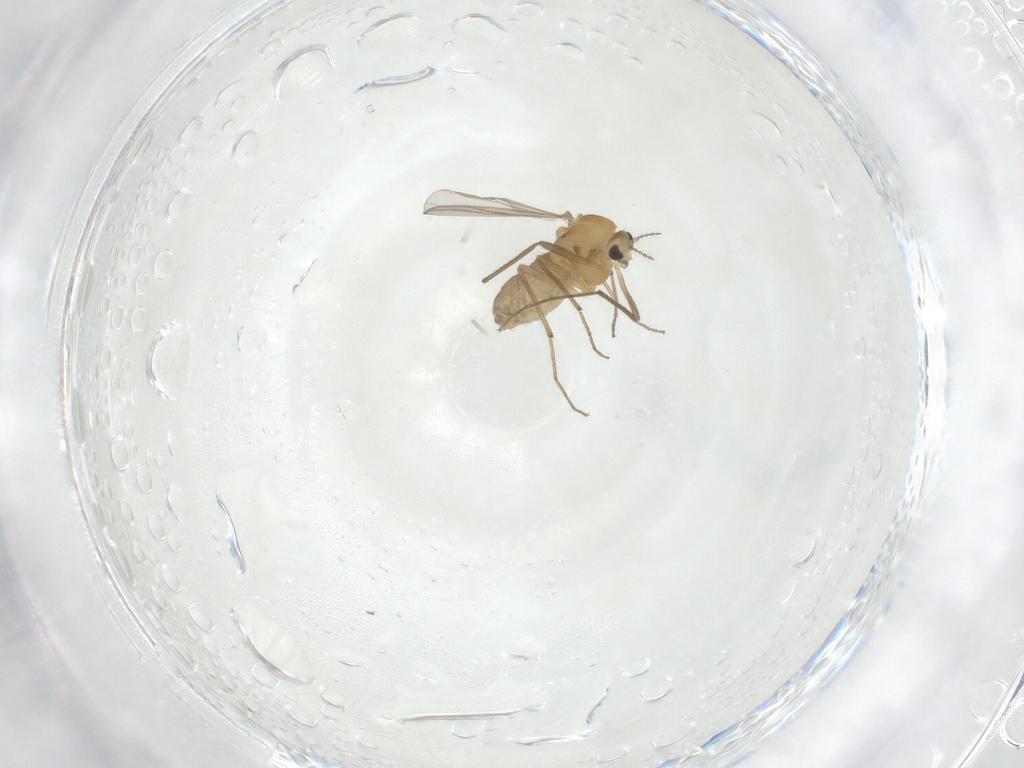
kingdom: Animalia
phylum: Arthropoda
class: Insecta
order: Diptera
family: Chironomidae
